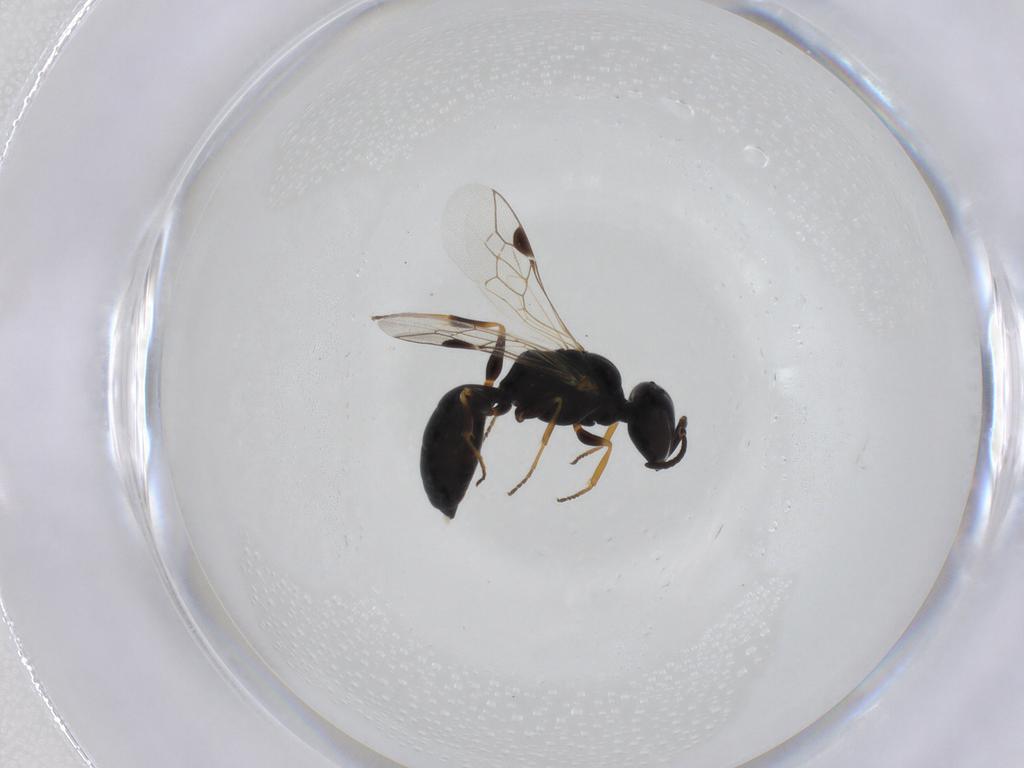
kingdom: Animalia
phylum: Arthropoda
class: Insecta
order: Hymenoptera
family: Pemphredonidae
